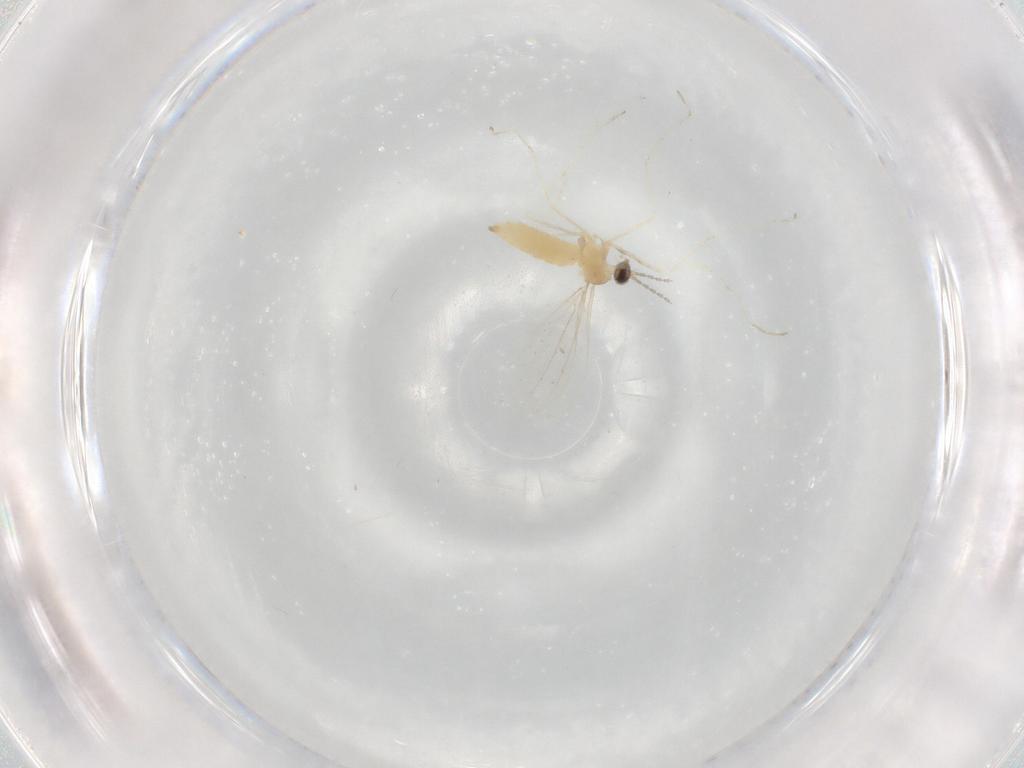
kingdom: Animalia
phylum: Arthropoda
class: Insecta
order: Diptera
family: Cecidomyiidae
